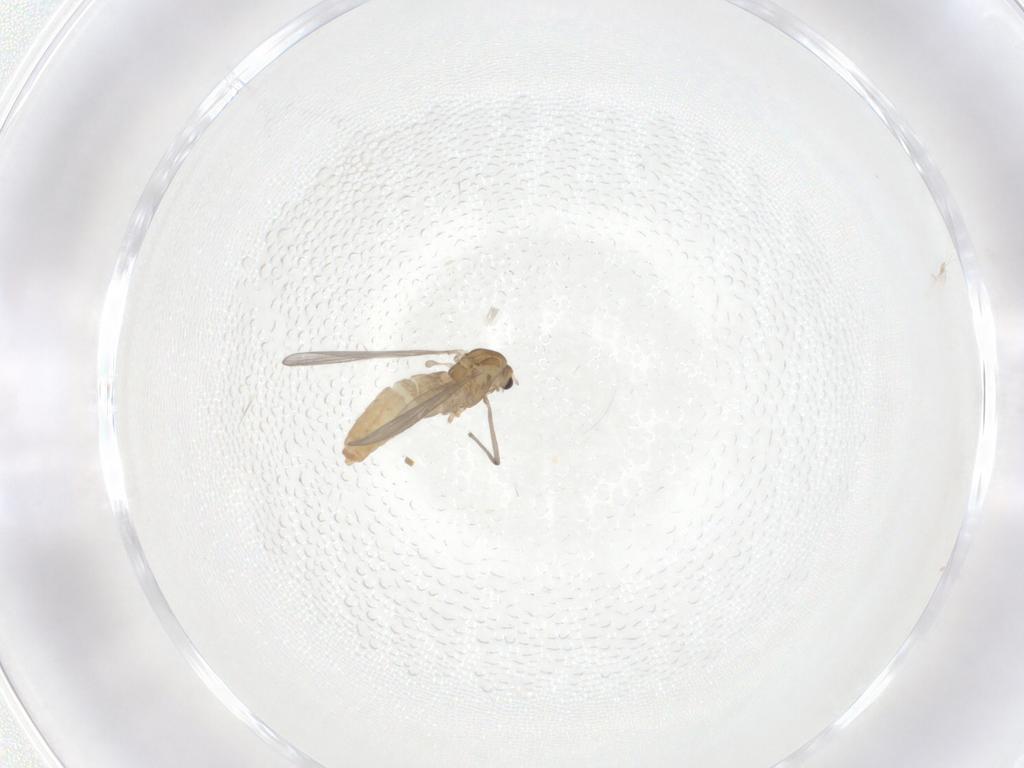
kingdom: Animalia
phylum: Arthropoda
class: Insecta
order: Diptera
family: Chironomidae
